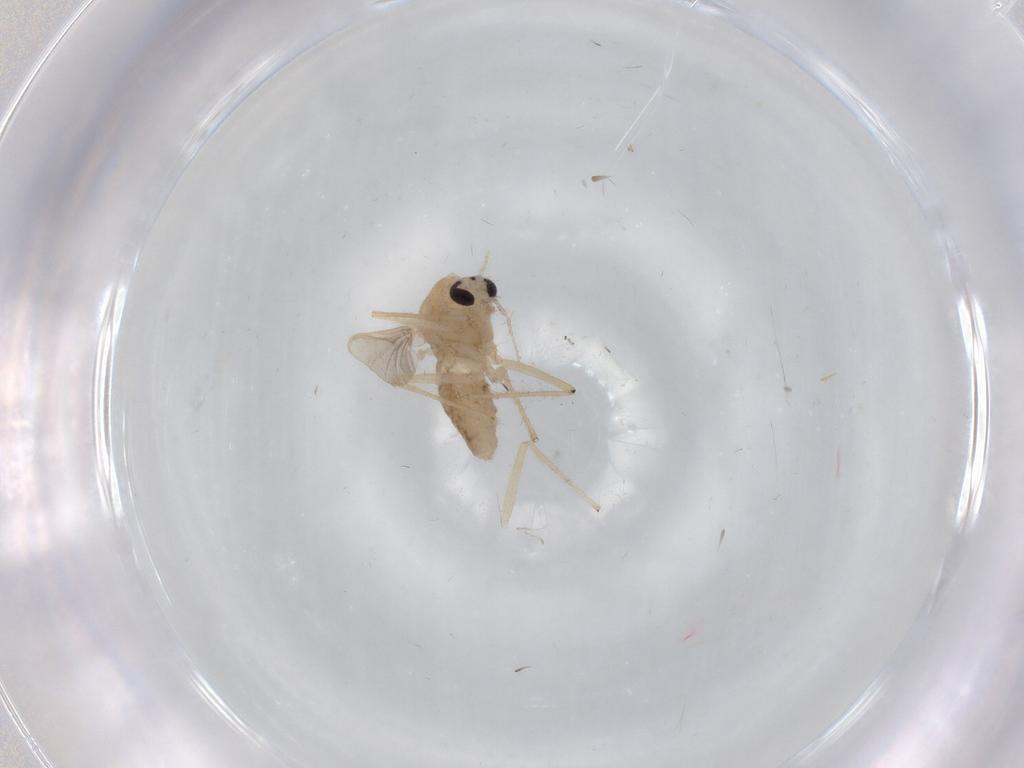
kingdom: Animalia
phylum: Arthropoda
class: Insecta
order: Diptera
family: Chironomidae
